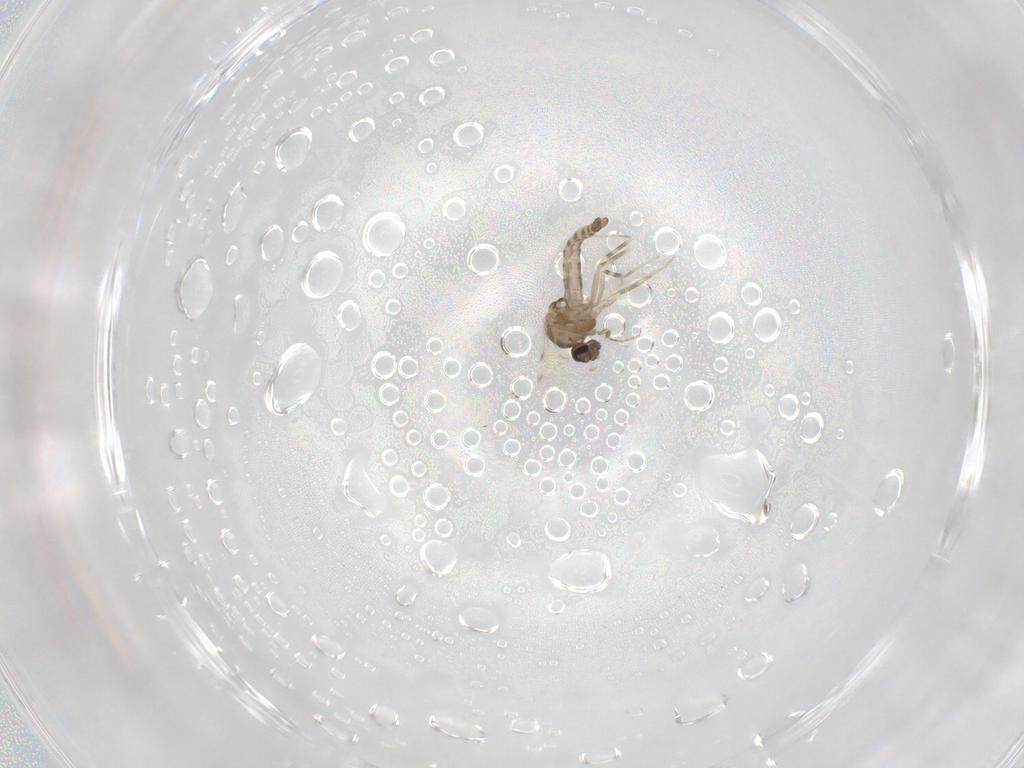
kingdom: Animalia
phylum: Arthropoda
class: Insecta
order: Diptera
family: Ceratopogonidae
